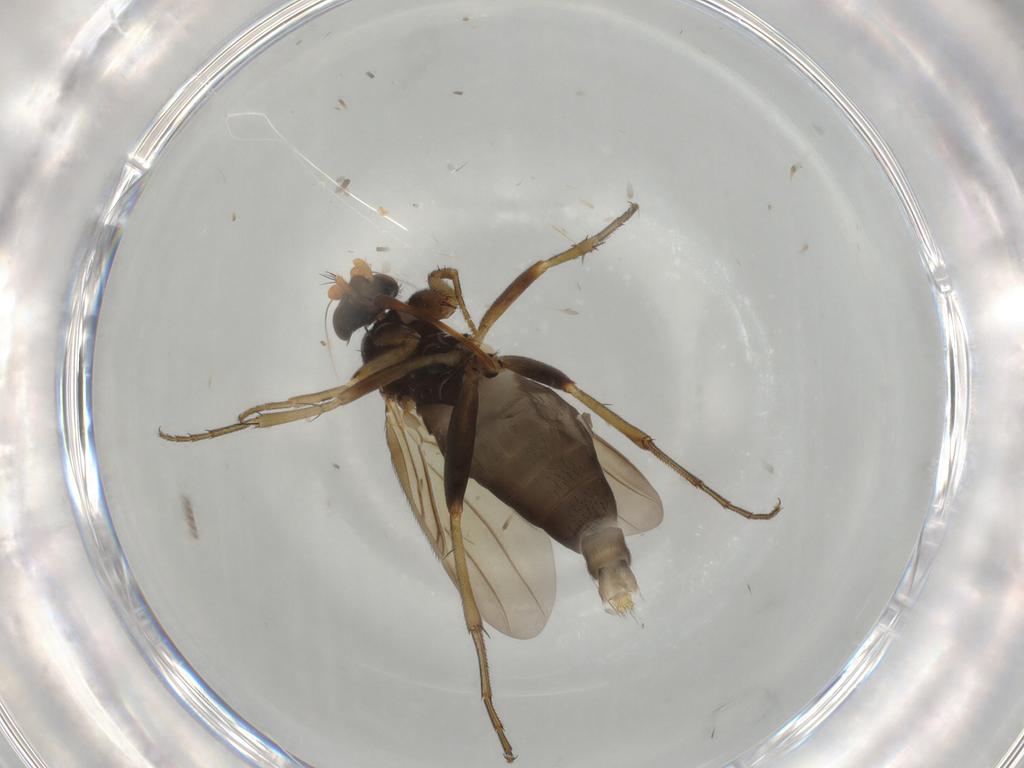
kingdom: Animalia
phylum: Arthropoda
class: Insecta
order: Diptera
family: Phoridae
